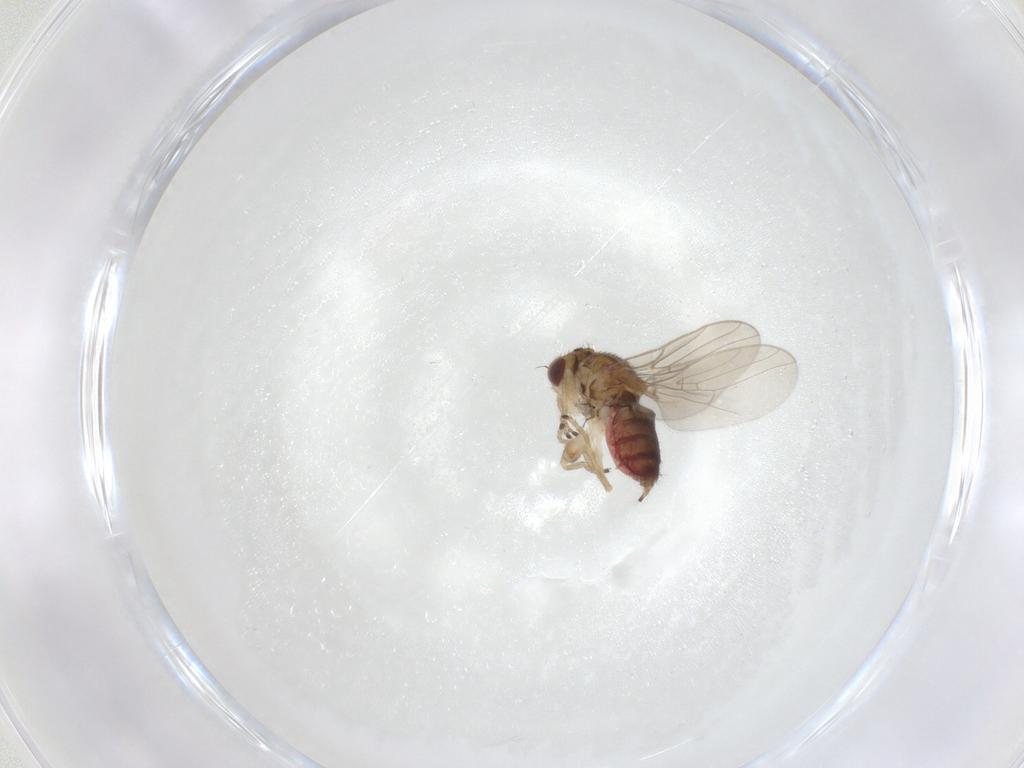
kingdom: Animalia
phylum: Arthropoda
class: Insecta
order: Diptera
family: Chloropidae
